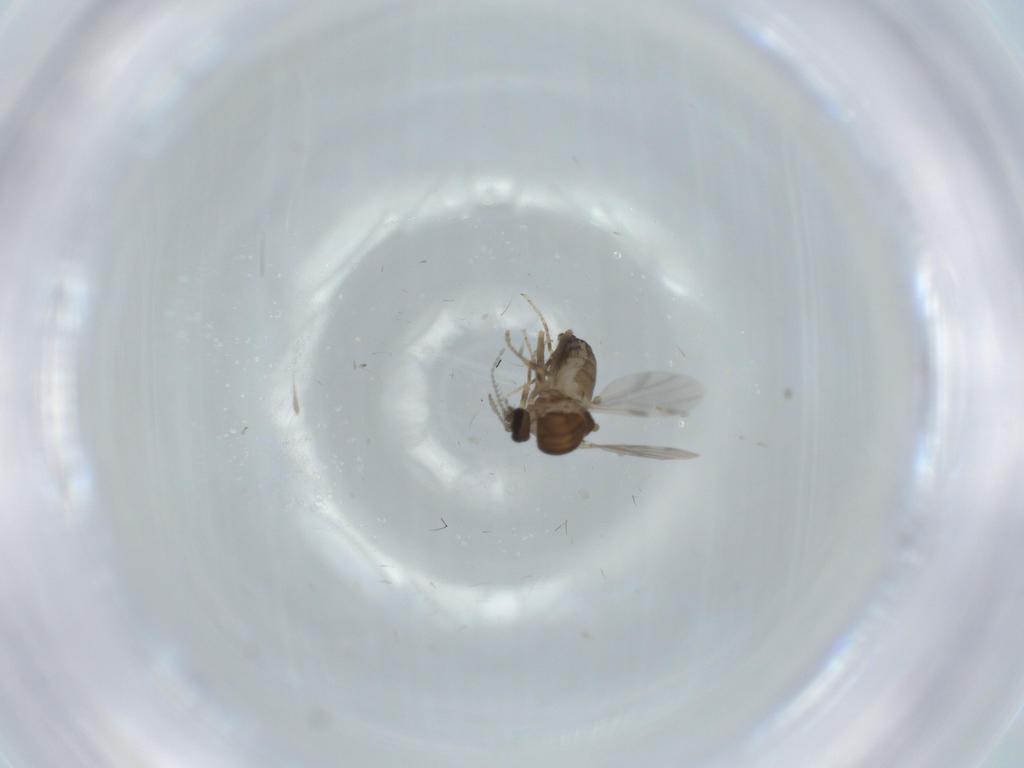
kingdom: Animalia
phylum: Arthropoda
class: Insecta
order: Diptera
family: Ceratopogonidae
